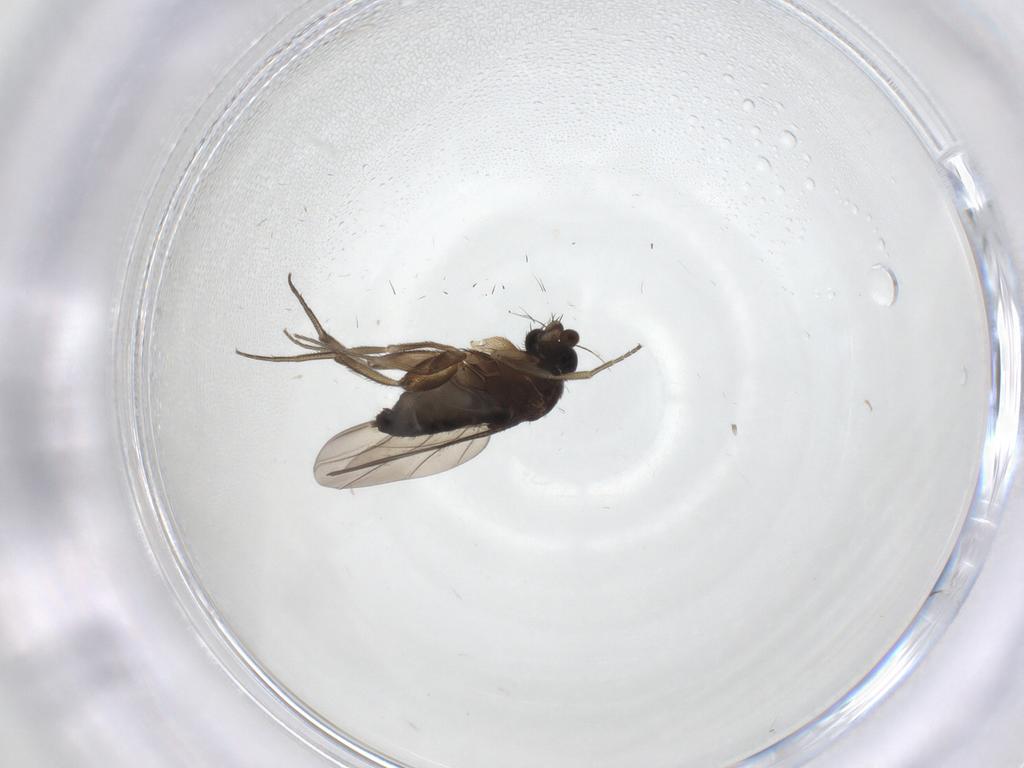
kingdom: Animalia
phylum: Arthropoda
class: Insecta
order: Diptera
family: Phoridae
